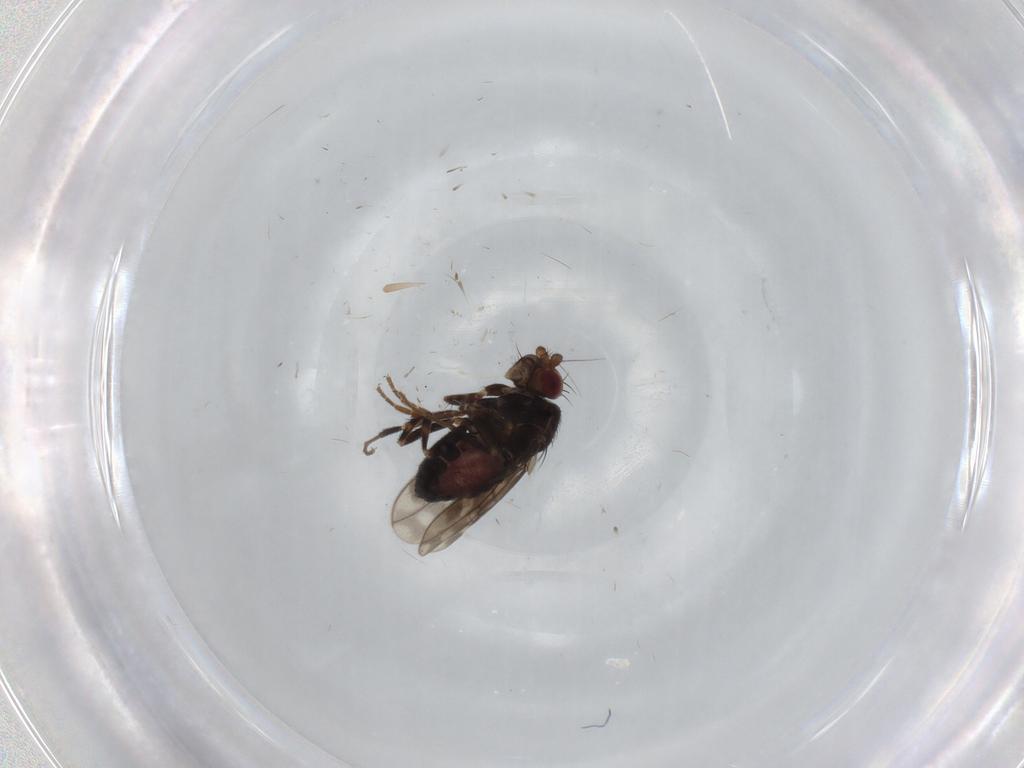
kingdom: Animalia
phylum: Arthropoda
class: Insecta
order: Diptera
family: Sphaeroceridae
